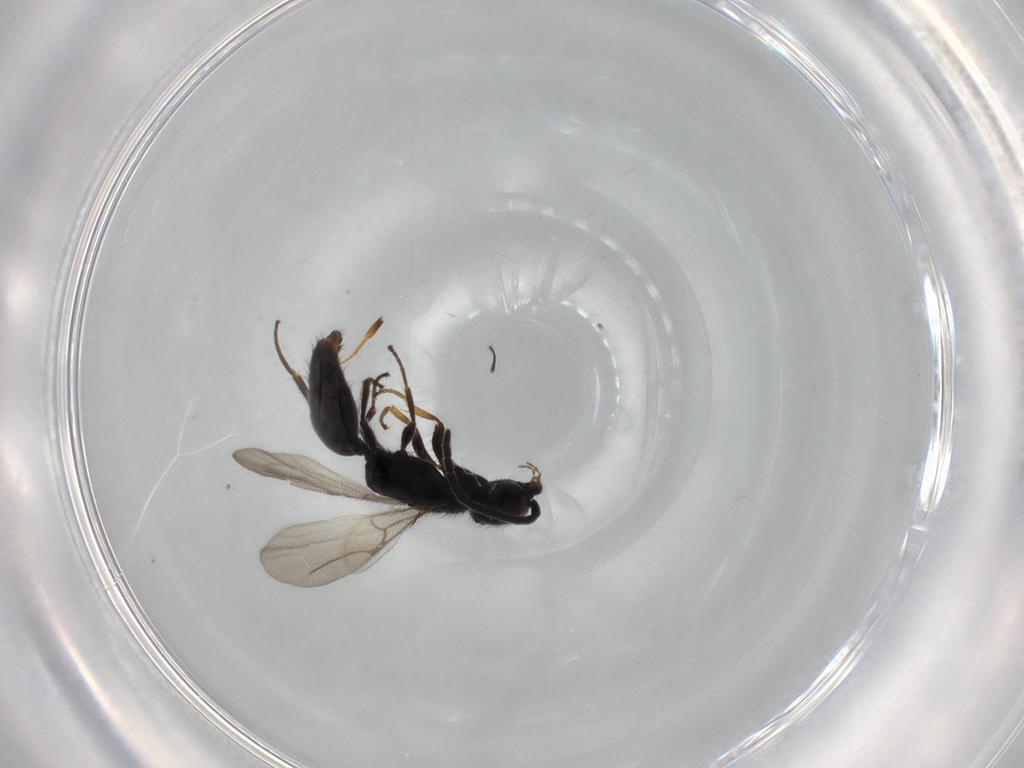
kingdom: Animalia
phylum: Arthropoda
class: Insecta
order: Hymenoptera
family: Bethylidae
